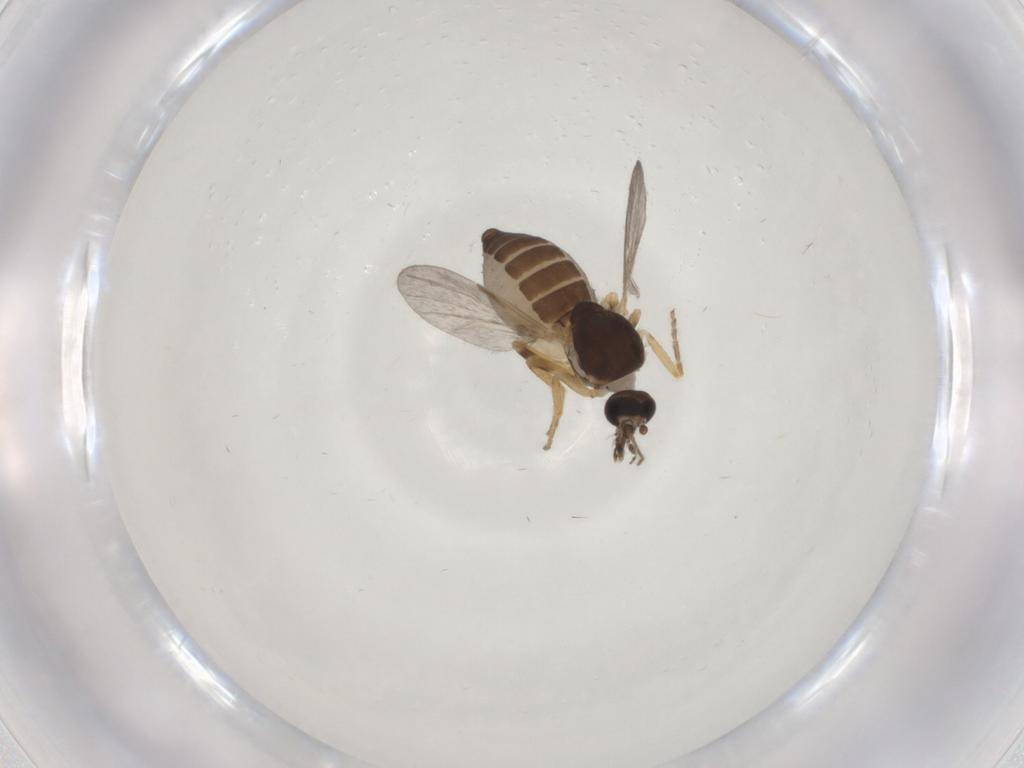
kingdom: Animalia
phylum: Arthropoda
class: Insecta
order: Diptera
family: Ceratopogonidae
